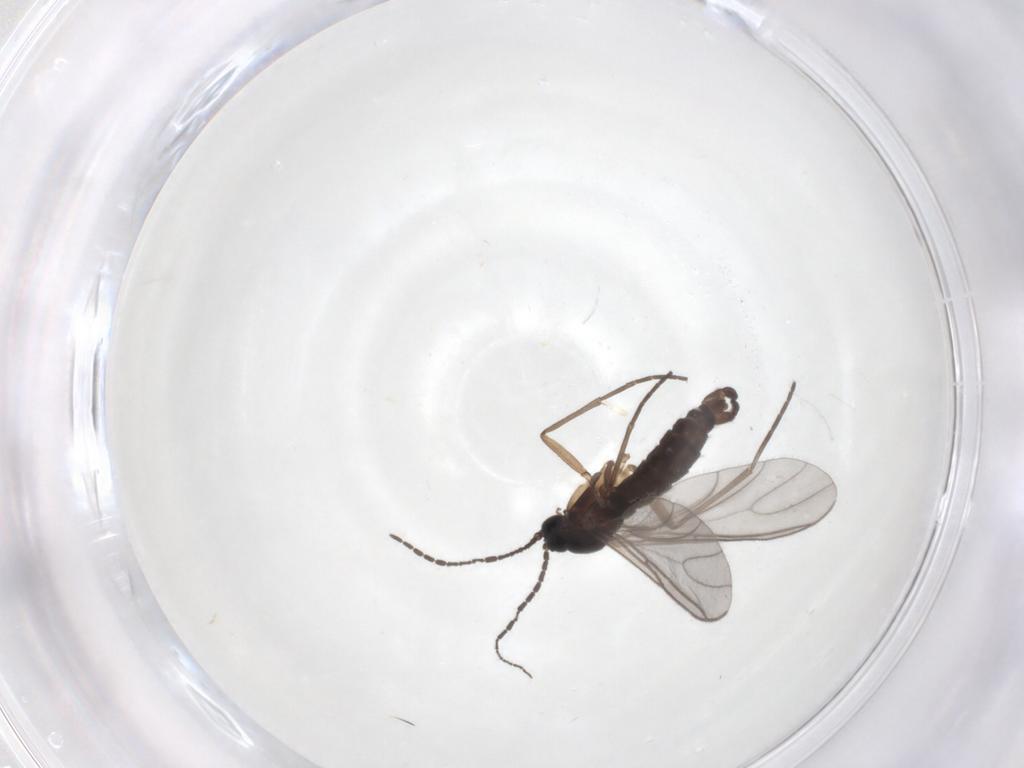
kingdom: Animalia
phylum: Arthropoda
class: Insecta
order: Diptera
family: Sciaridae
